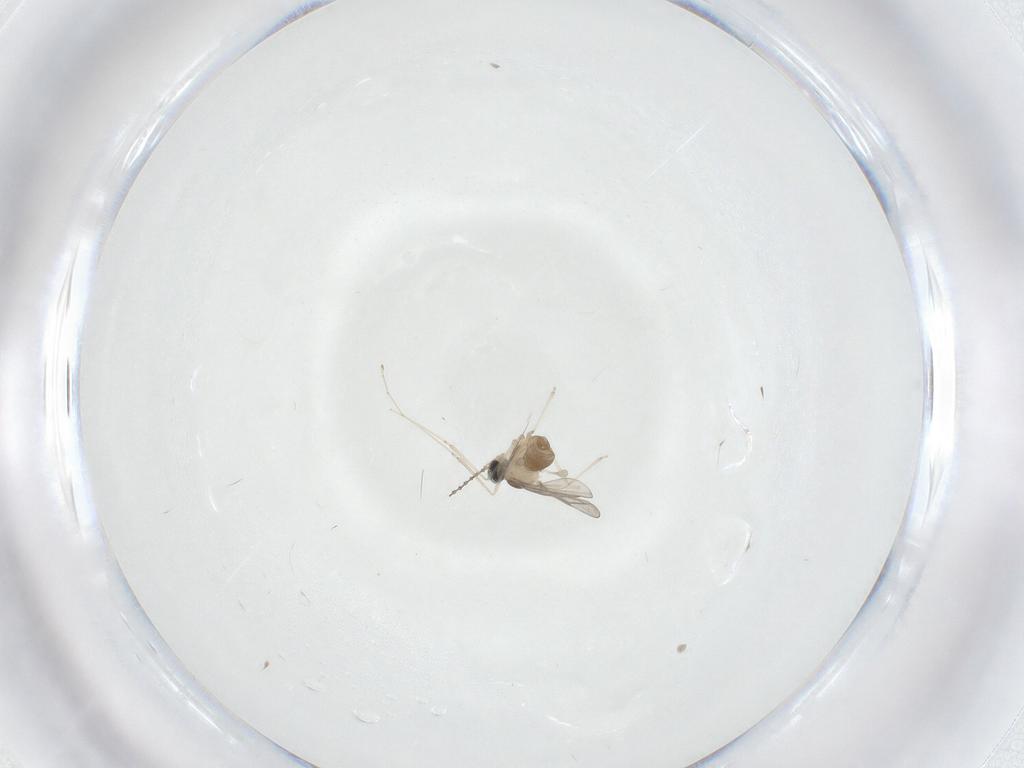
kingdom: Animalia
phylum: Arthropoda
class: Insecta
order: Diptera
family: Cecidomyiidae
